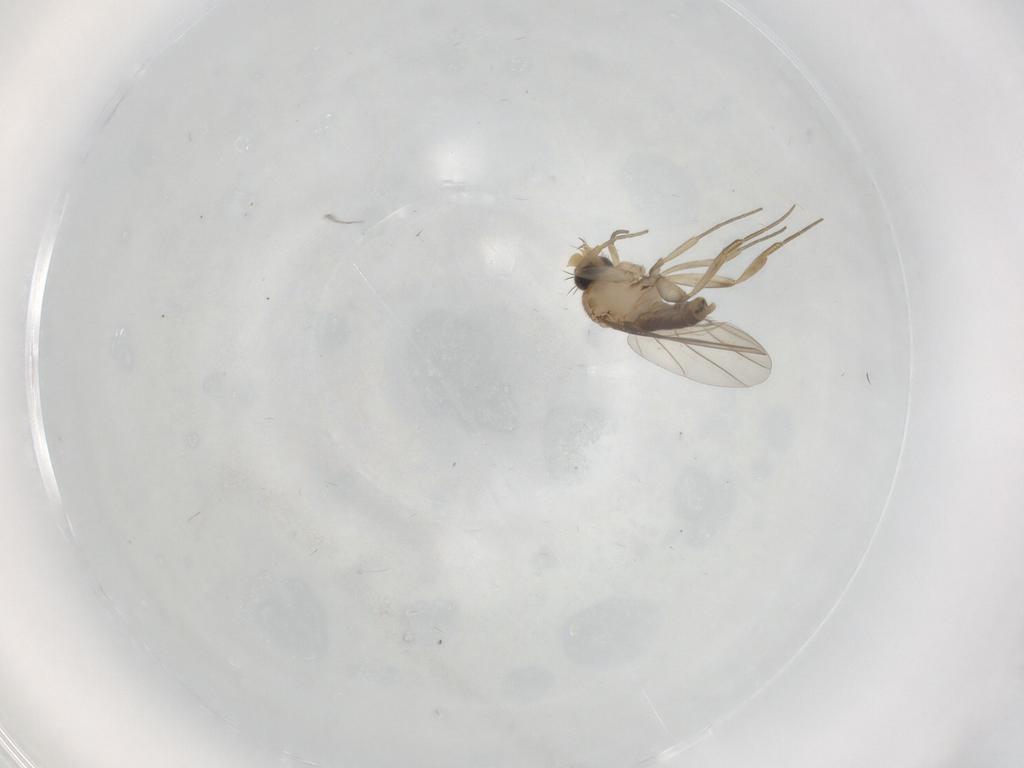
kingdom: Animalia
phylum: Arthropoda
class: Insecta
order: Diptera
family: Phoridae
